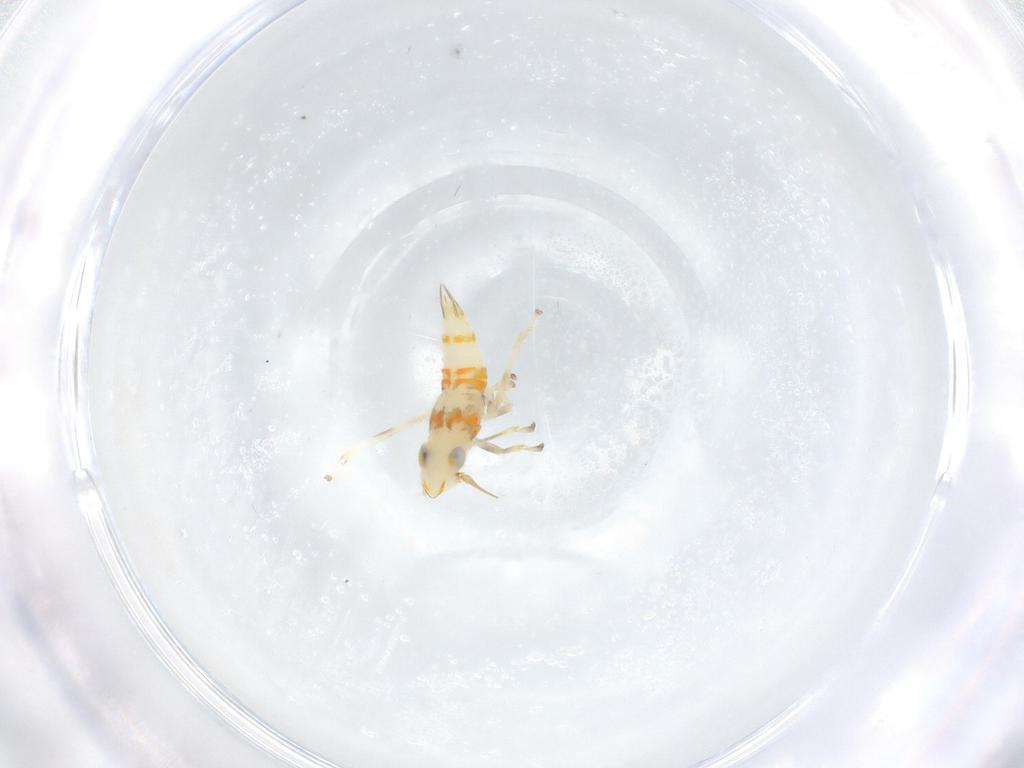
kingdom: Animalia
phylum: Arthropoda
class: Insecta
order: Hemiptera
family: Cicadellidae
